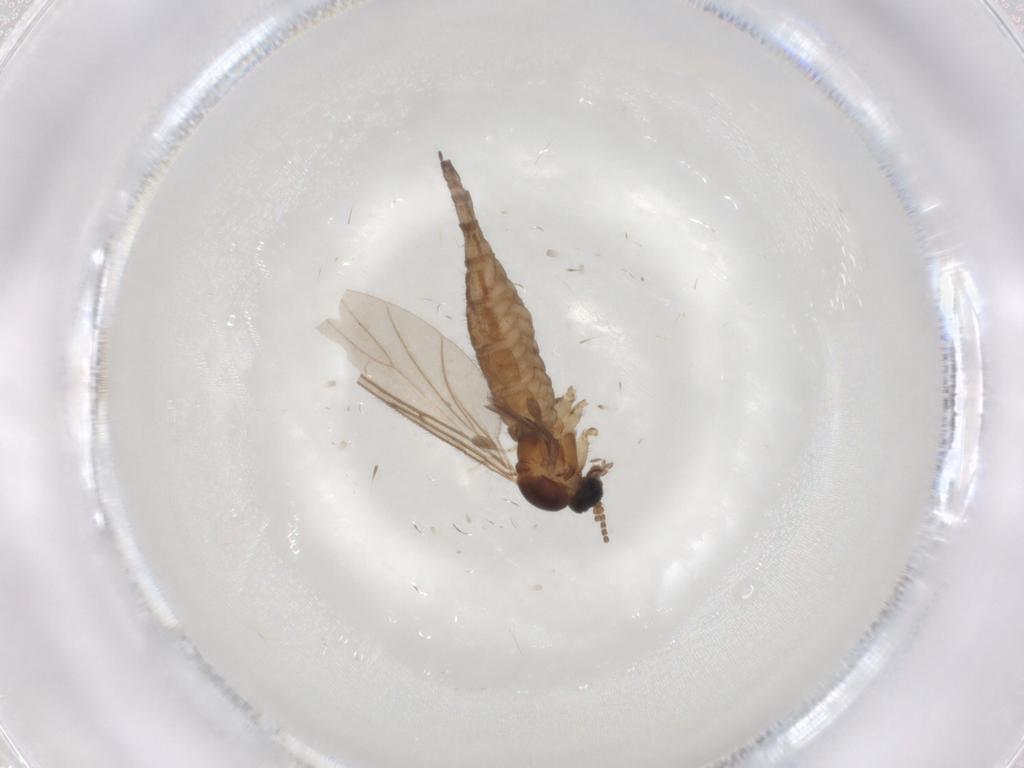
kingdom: Animalia
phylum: Arthropoda
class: Insecta
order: Diptera
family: Sciaridae
